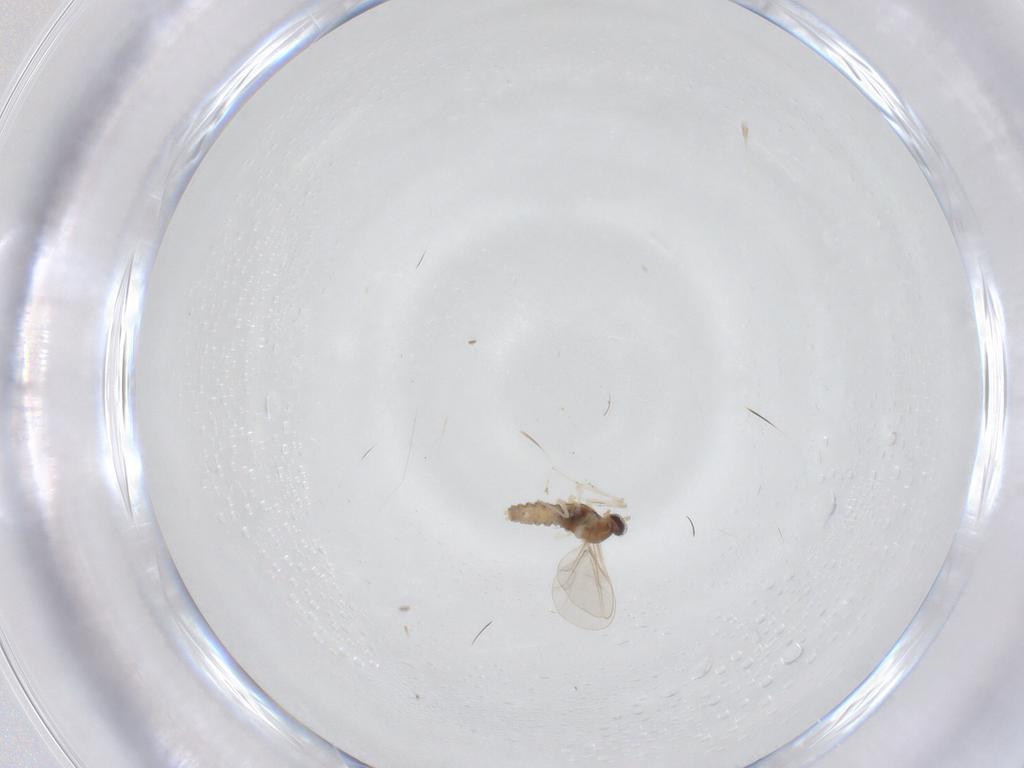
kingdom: Animalia
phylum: Arthropoda
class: Insecta
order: Diptera
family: Cecidomyiidae
